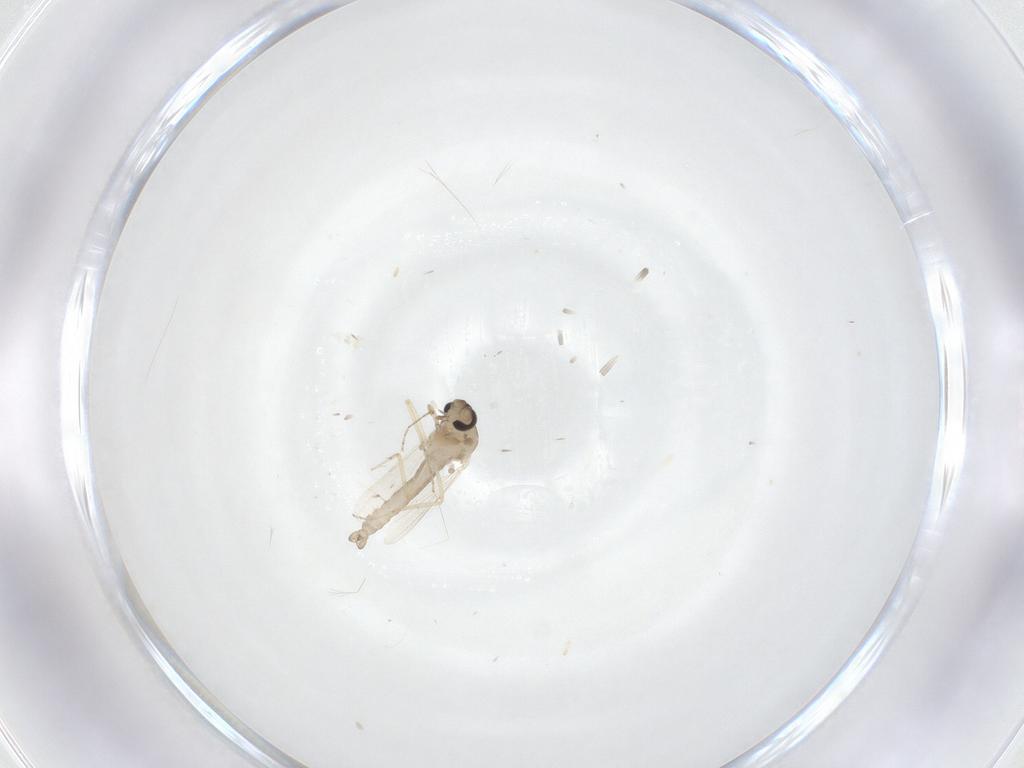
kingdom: Animalia
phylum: Arthropoda
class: Insecta
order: Diptera
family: Ceratopogonidae
